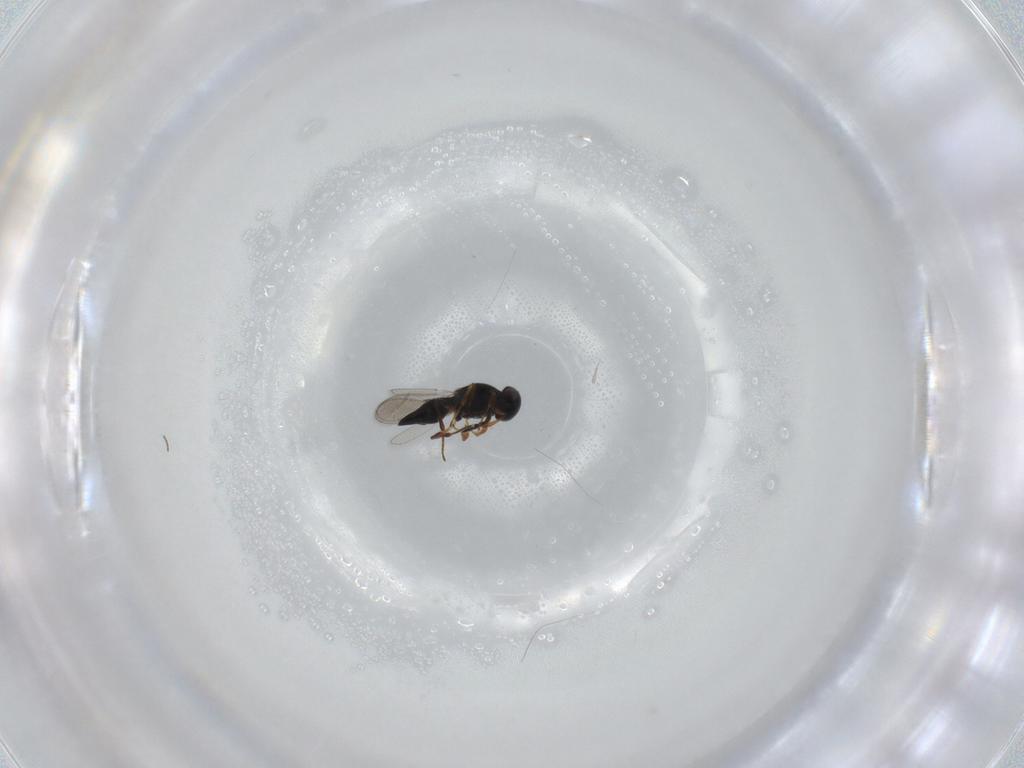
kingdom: Animalia
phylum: Arthropoda
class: Insecta
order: Hymenoptera
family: Platygastridae
